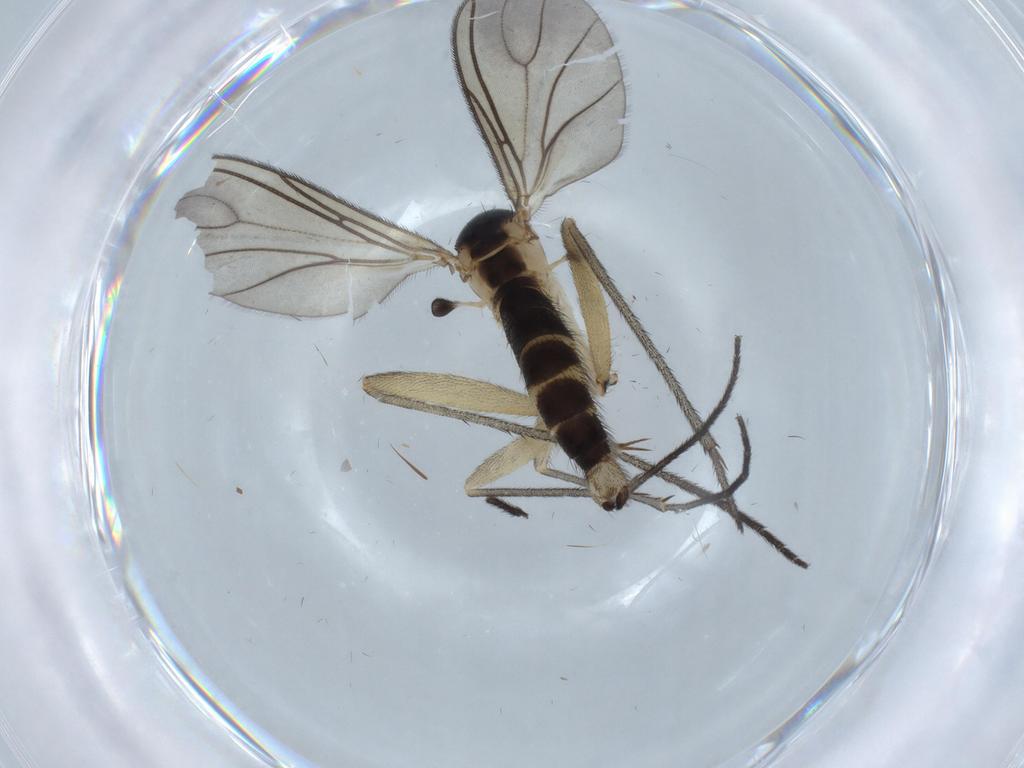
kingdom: Animalia
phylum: Arthropoda
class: Insecta
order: Diptera
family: Sciaridae
